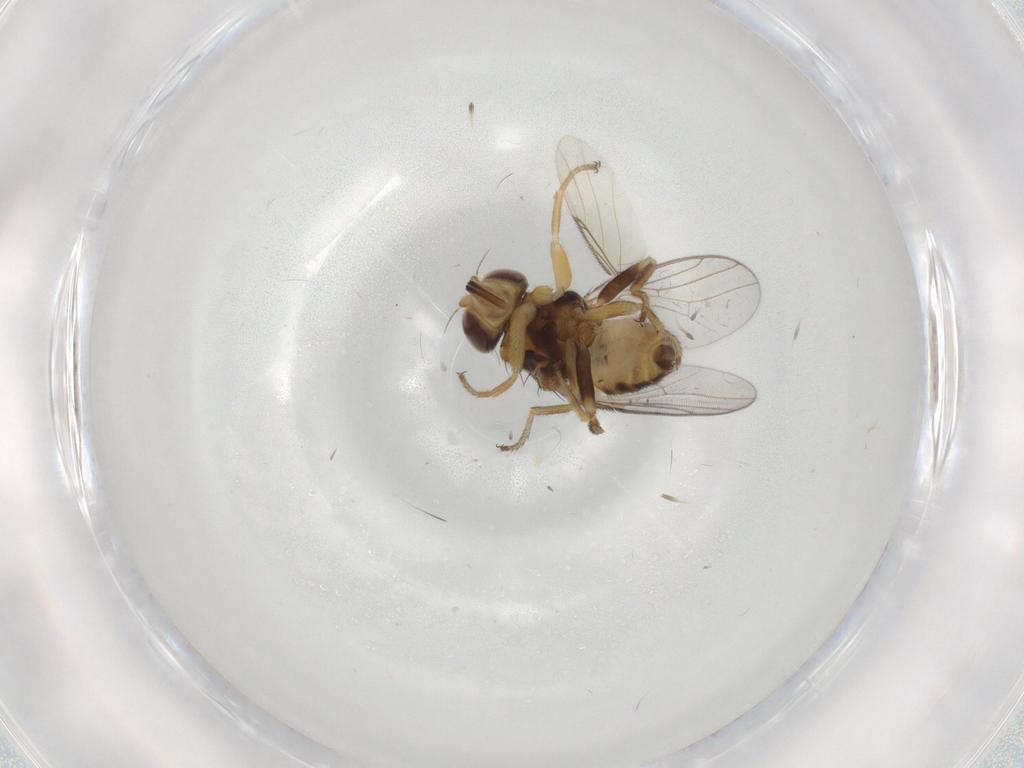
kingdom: Animalia
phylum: Arthropoda
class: Insecta
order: Diptera
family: Chloropidae
